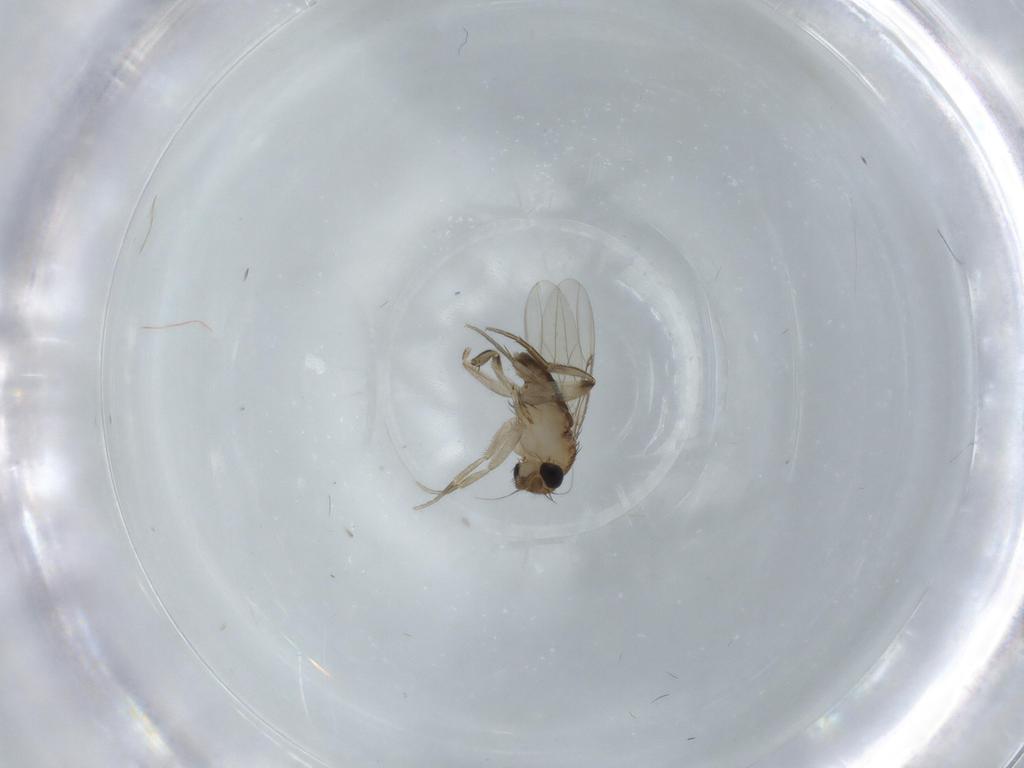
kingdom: Animalia
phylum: Arthropoda
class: Insecta
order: Diptera
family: Phoridae
